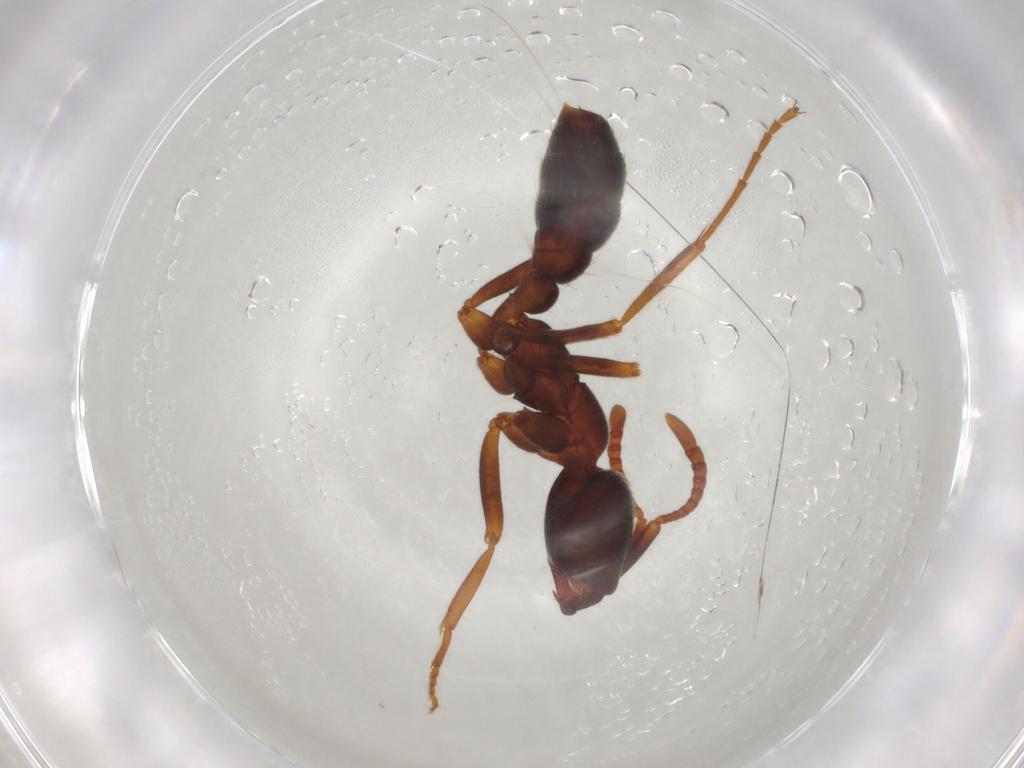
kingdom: Animalia
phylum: Arthropoda
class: Insecta
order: Hymenoptera
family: Formicidae
